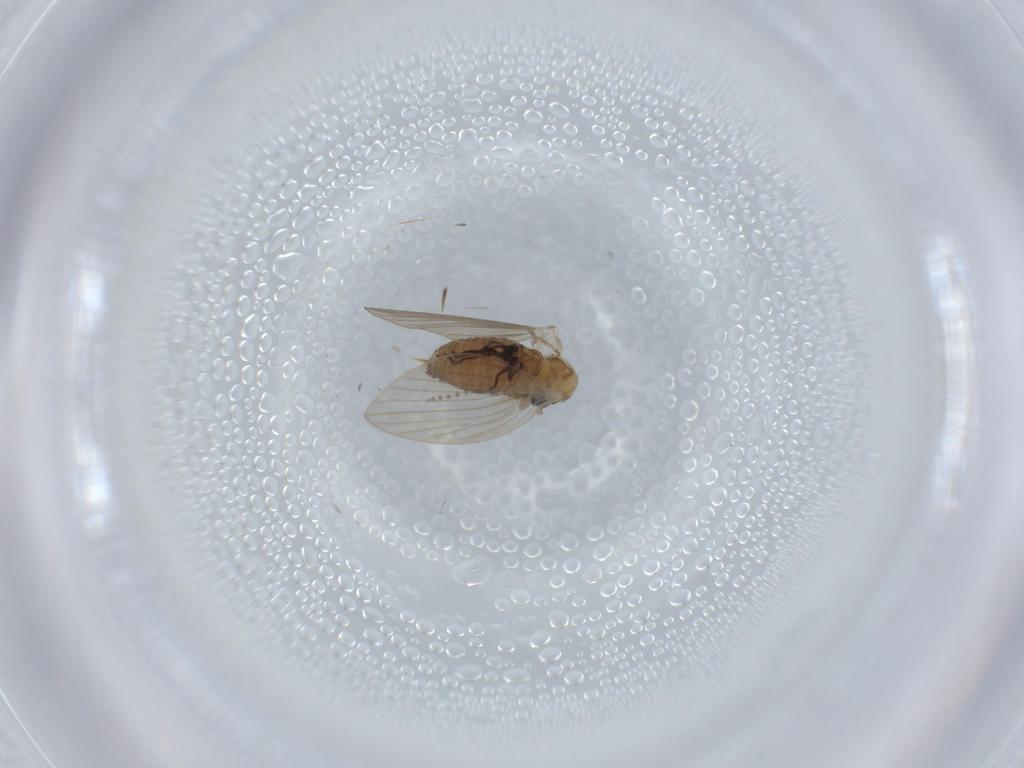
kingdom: Animalia
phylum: Arthropoda
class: Insecta
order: Diptera
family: Psychodidae
